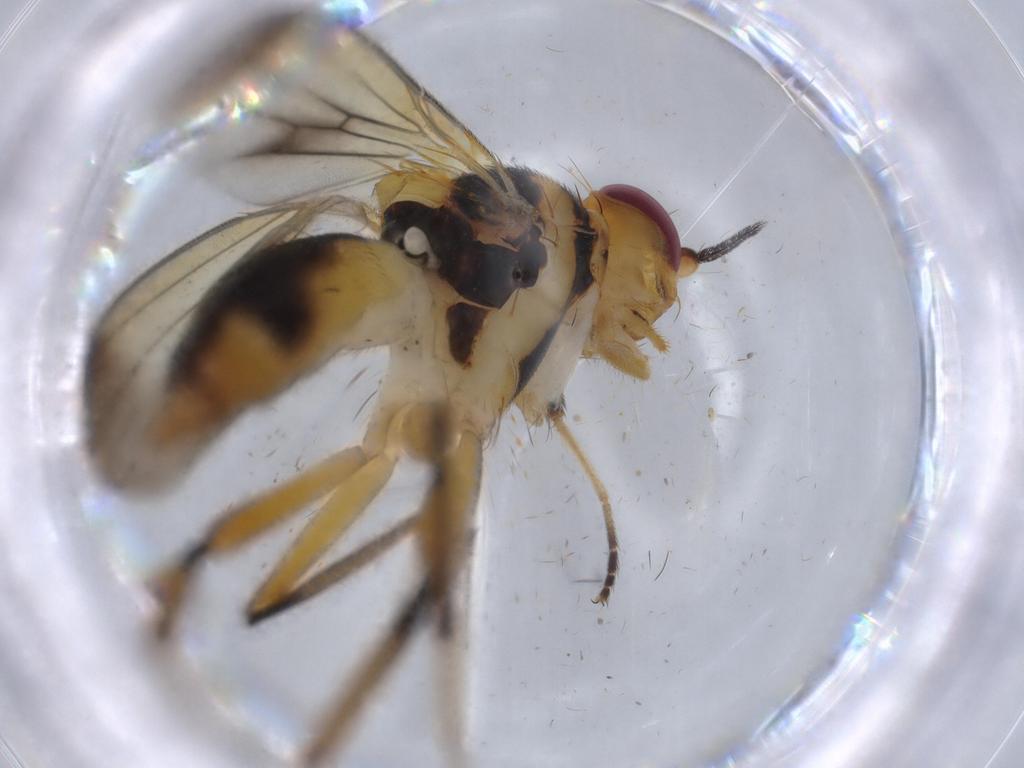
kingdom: Animalia
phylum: Arthropoda
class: Insecta
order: Diptera
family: Clusiidae
